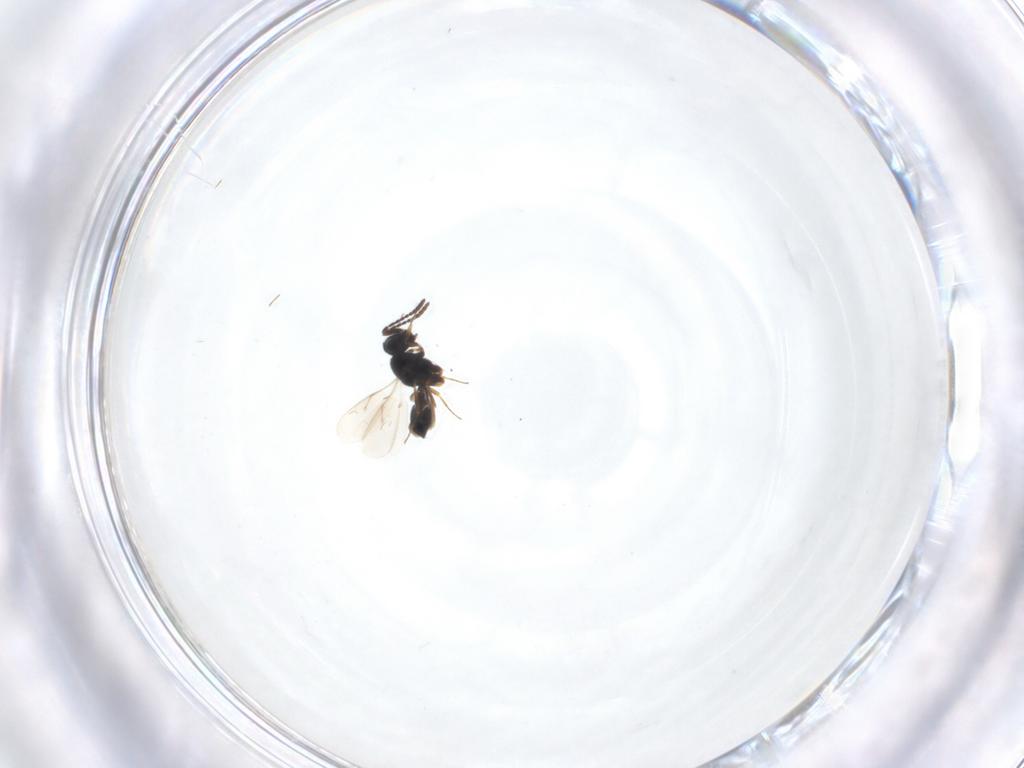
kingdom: Animalia
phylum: Arthropoda
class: Insecta
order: Hymenoptera
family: Scelionidae
